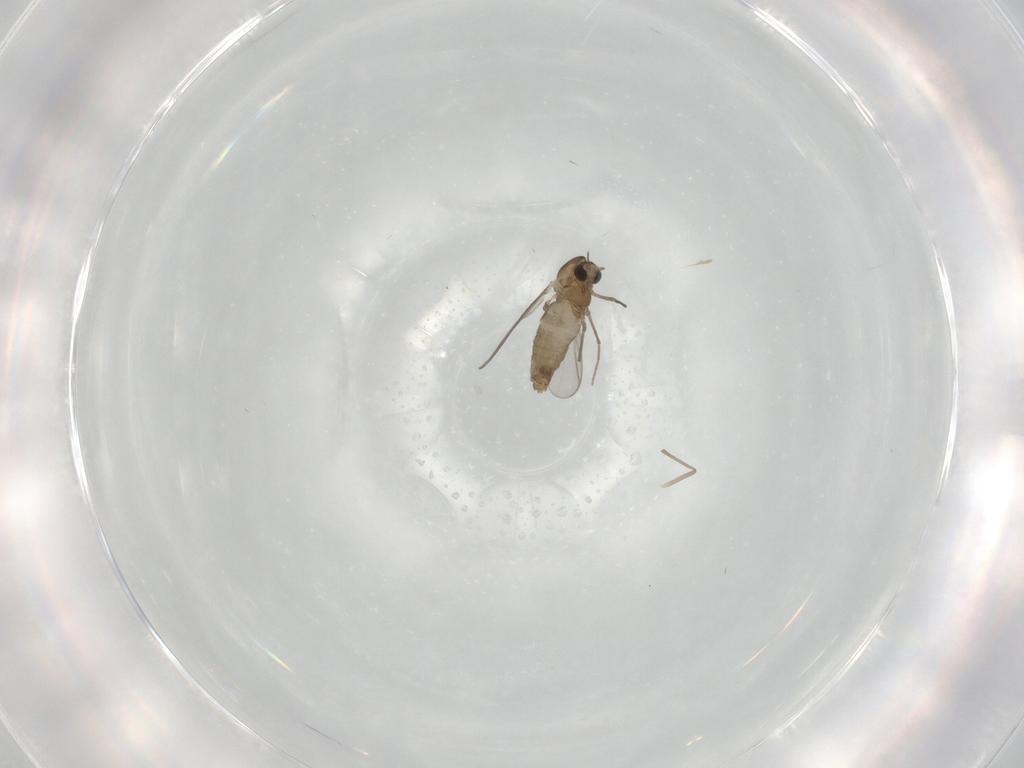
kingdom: Animalia
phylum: Arthropoda
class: Insecta
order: Diptera
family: Chironomidae
